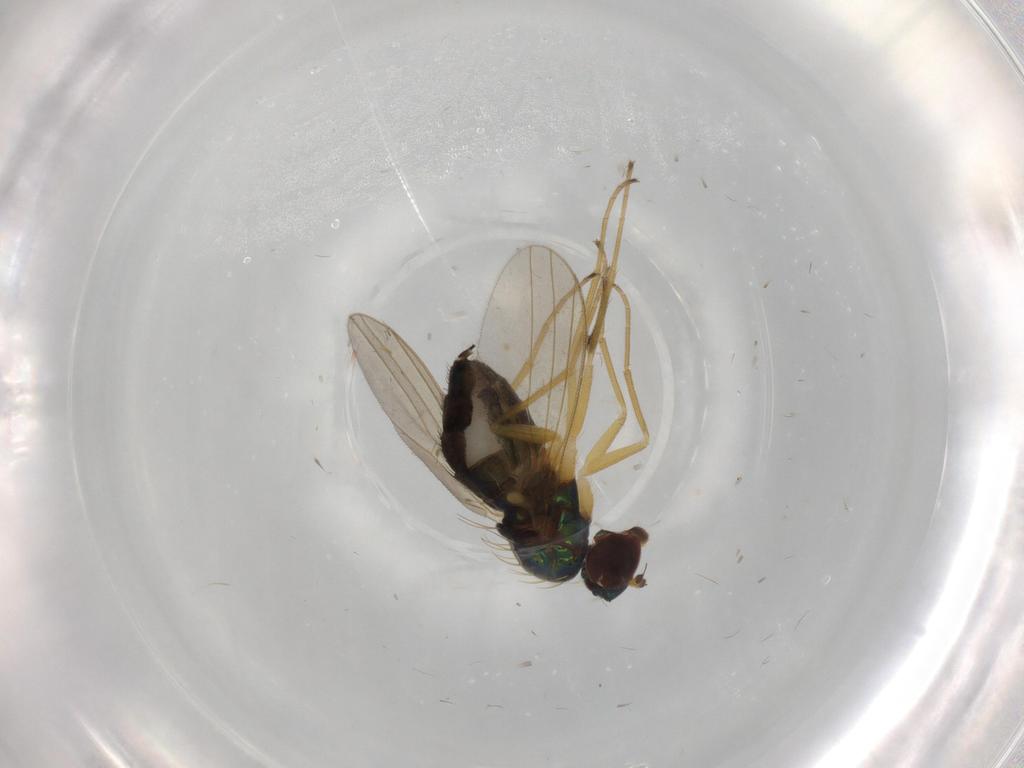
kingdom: Animalia
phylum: Arthropoda
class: Insecta
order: Diptera
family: Dolichopodidae
